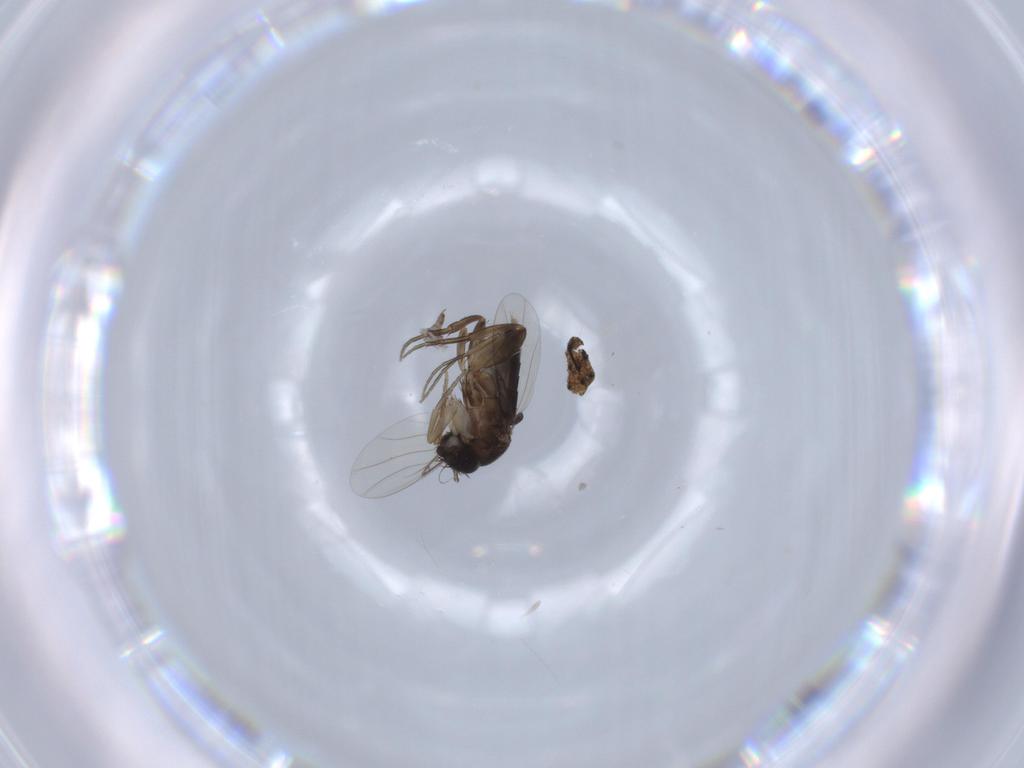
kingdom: Animalia
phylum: Arthropoda
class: Insecta
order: Diptera
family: Sciaridae
